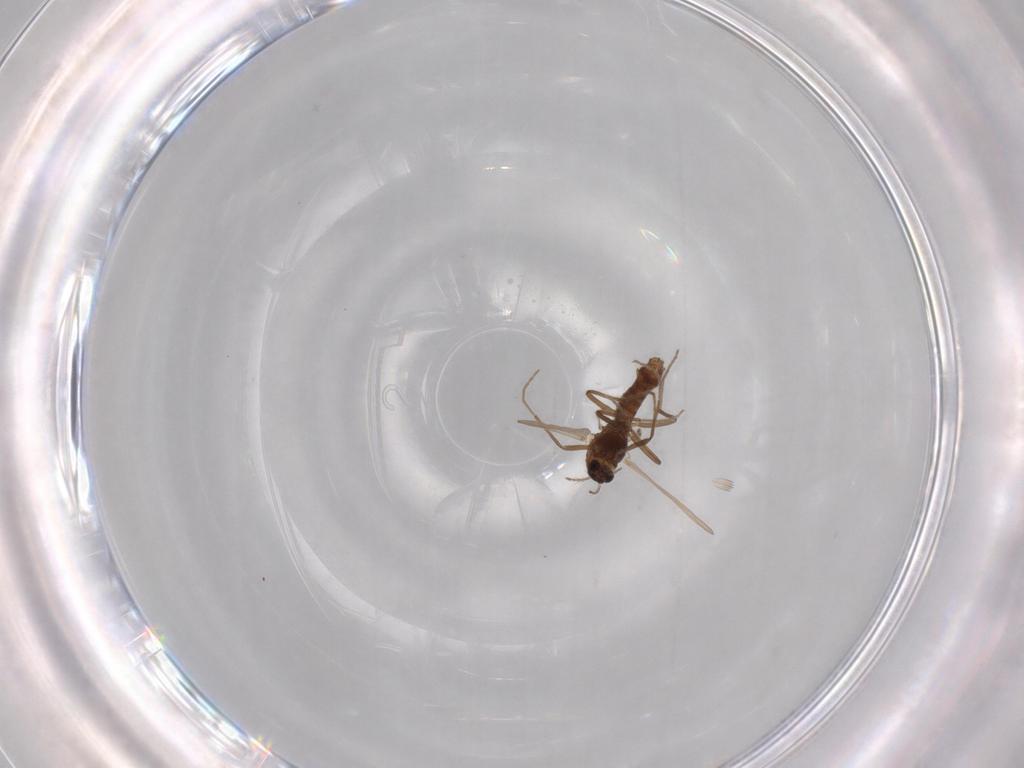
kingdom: Animalia
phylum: Arthropoda
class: Insecta
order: Diptera
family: Chironomidae
